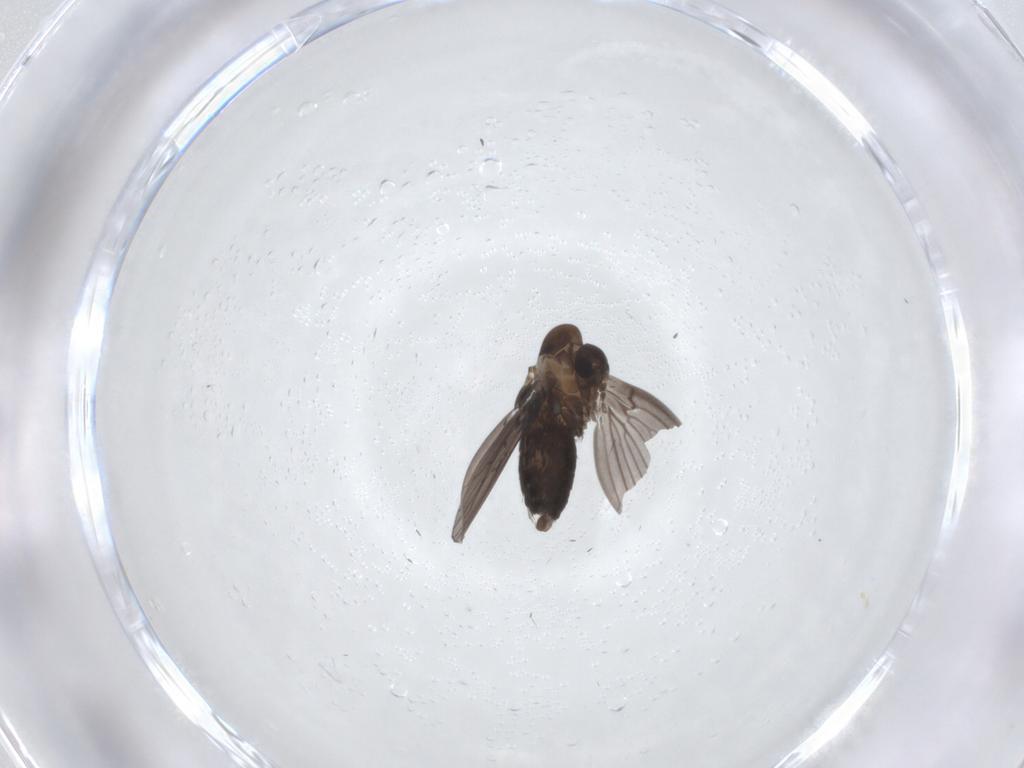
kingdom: Animalia
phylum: Arthropoda
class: Insecta
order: Diptera
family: Psychodidae
